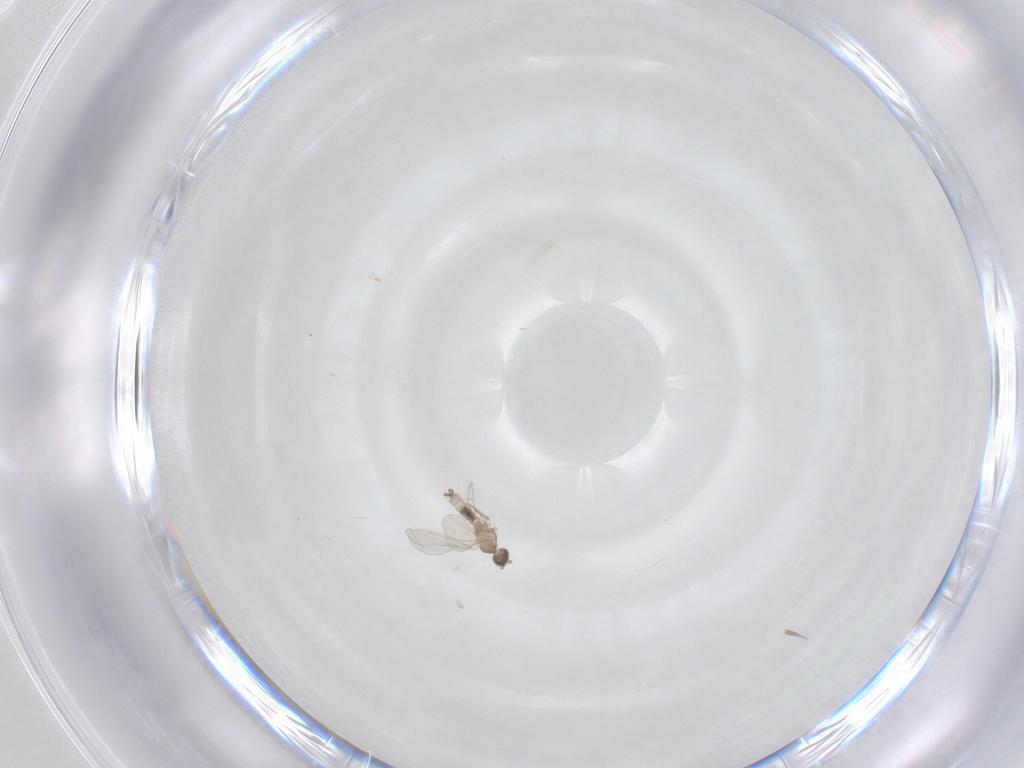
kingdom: Animalia
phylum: Arthropoda
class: Insecta
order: Diptera
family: Cecidomyiidae
